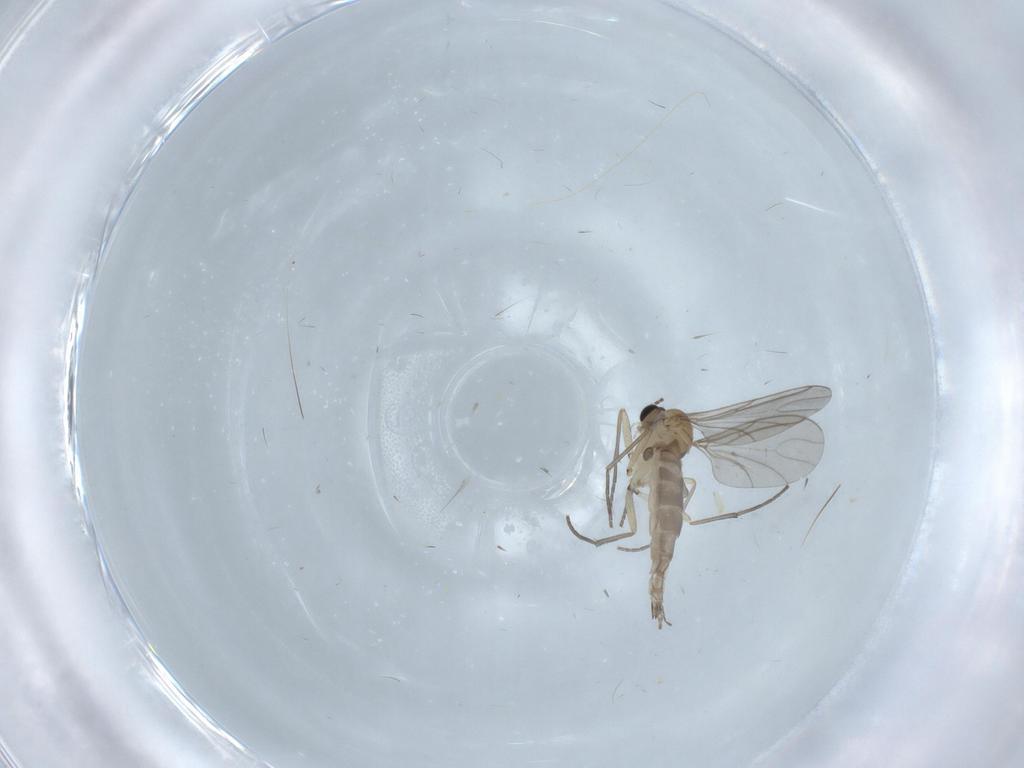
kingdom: Animalia
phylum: Arthropoda
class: Insecta
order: Diptera
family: Sciaridae
